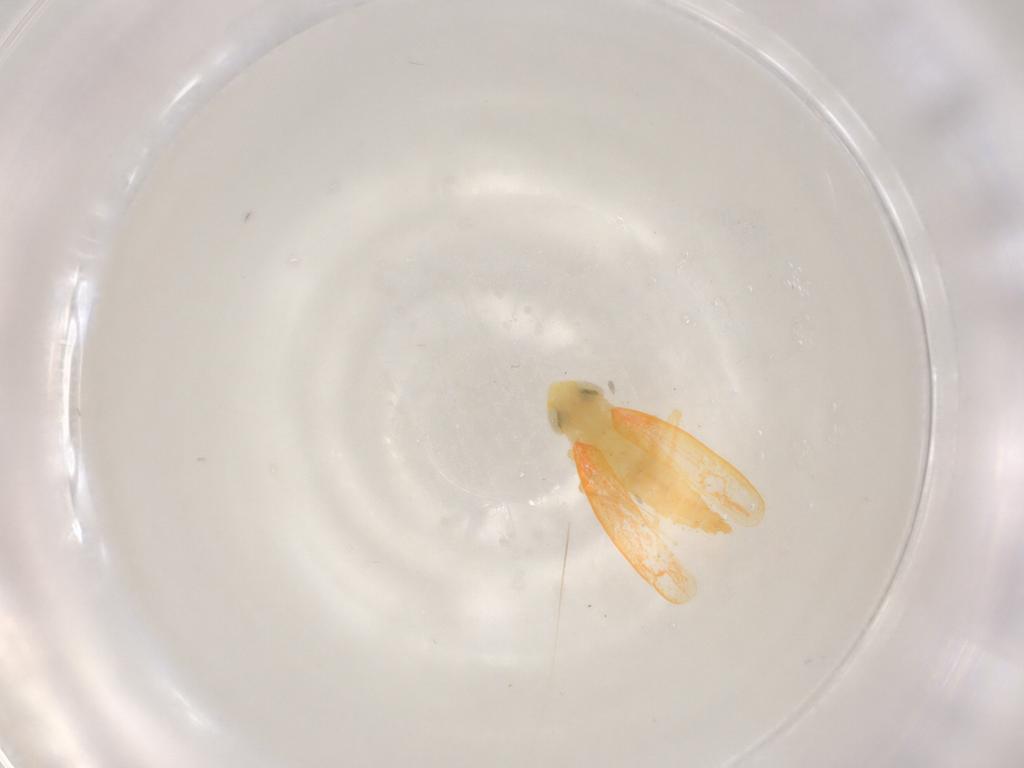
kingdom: Animalia
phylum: Arthropoda
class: Insecta
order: Hemiptera
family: Cicadellidae
